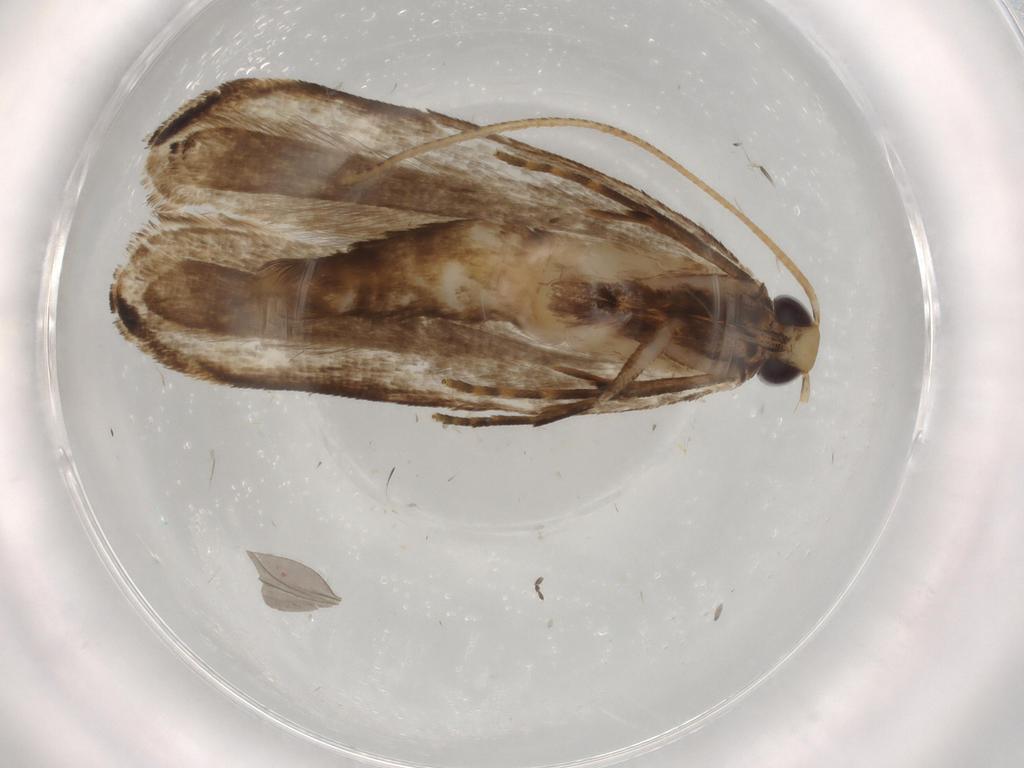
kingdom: Animalia
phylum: Arthropoda
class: Insecta
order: Lepidoptera
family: Gelechiidae
